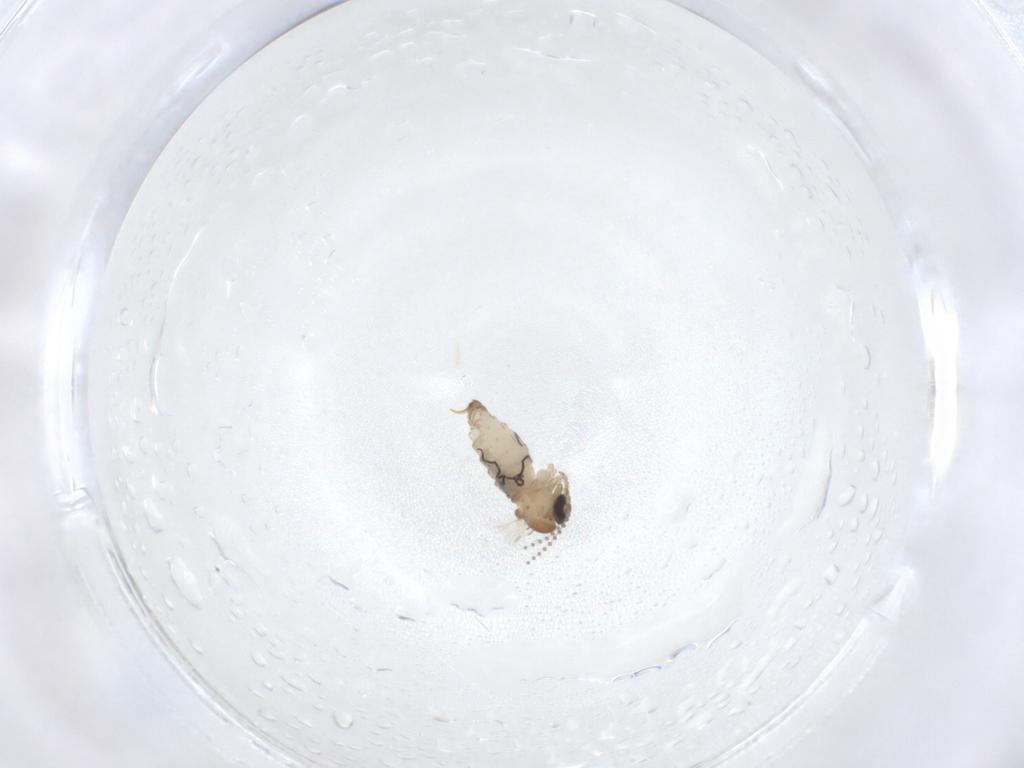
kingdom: Animalia
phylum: Arthropoda
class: Insecta
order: Diptera
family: Psychodidae
